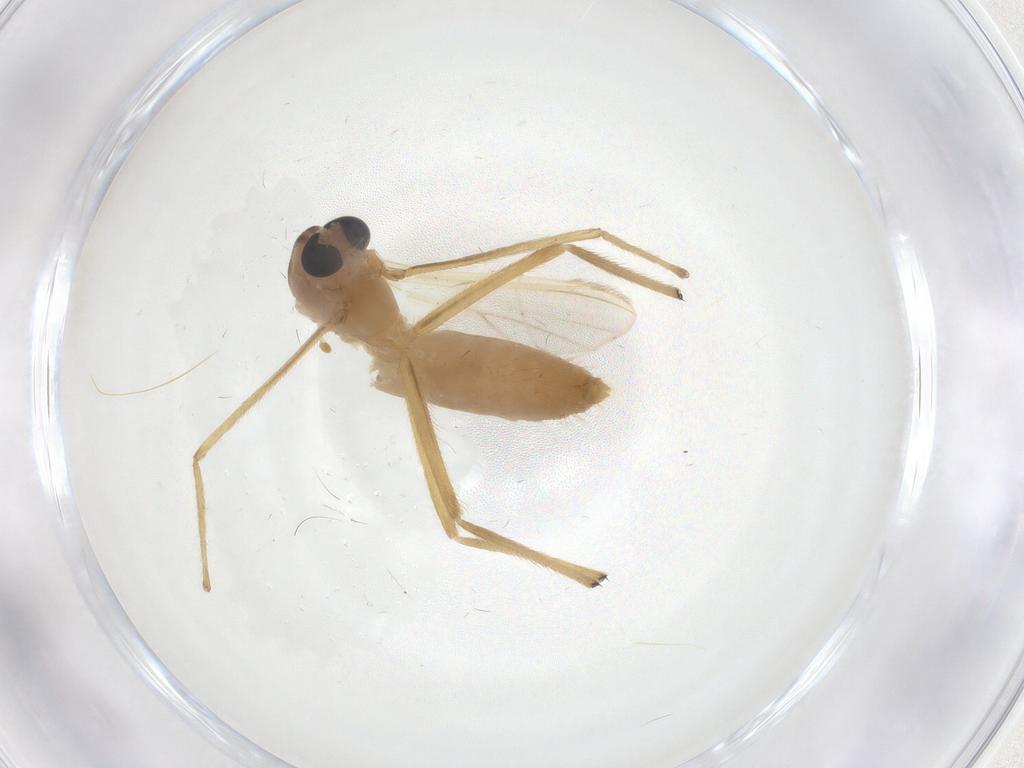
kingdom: Animalia
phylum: Arthropoda
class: Insecta
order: Diptera
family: Chironomidae
